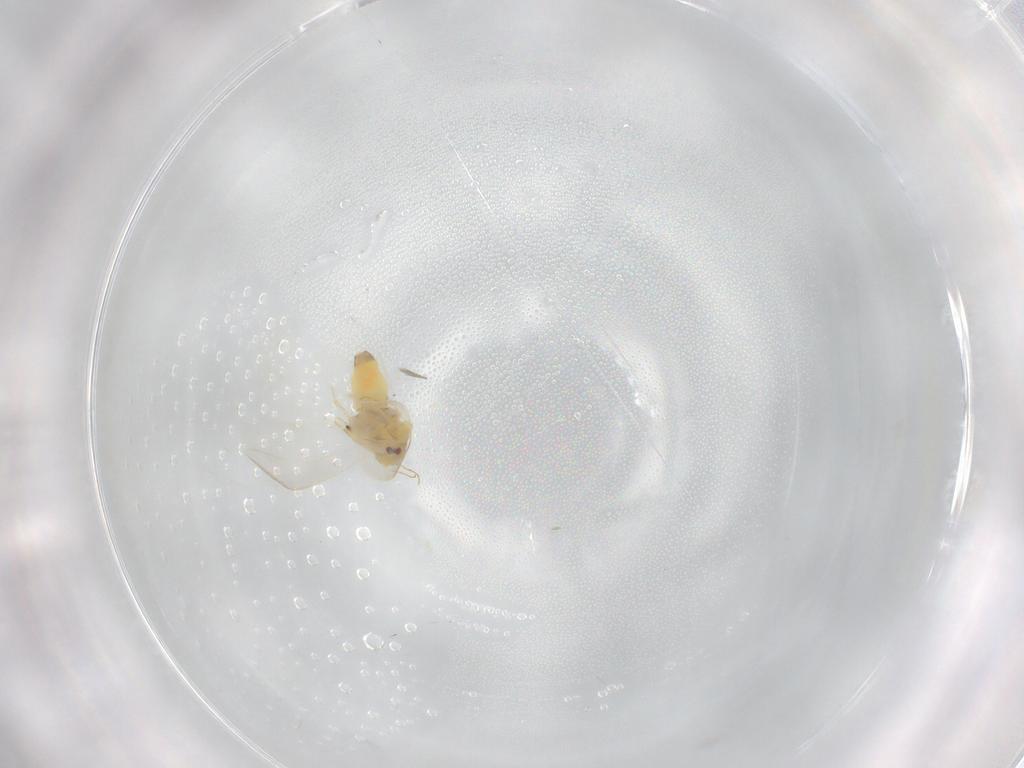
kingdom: Animalia
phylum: Arthropoda
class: Insecta
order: Hemiptera
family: Aleyrodidae
